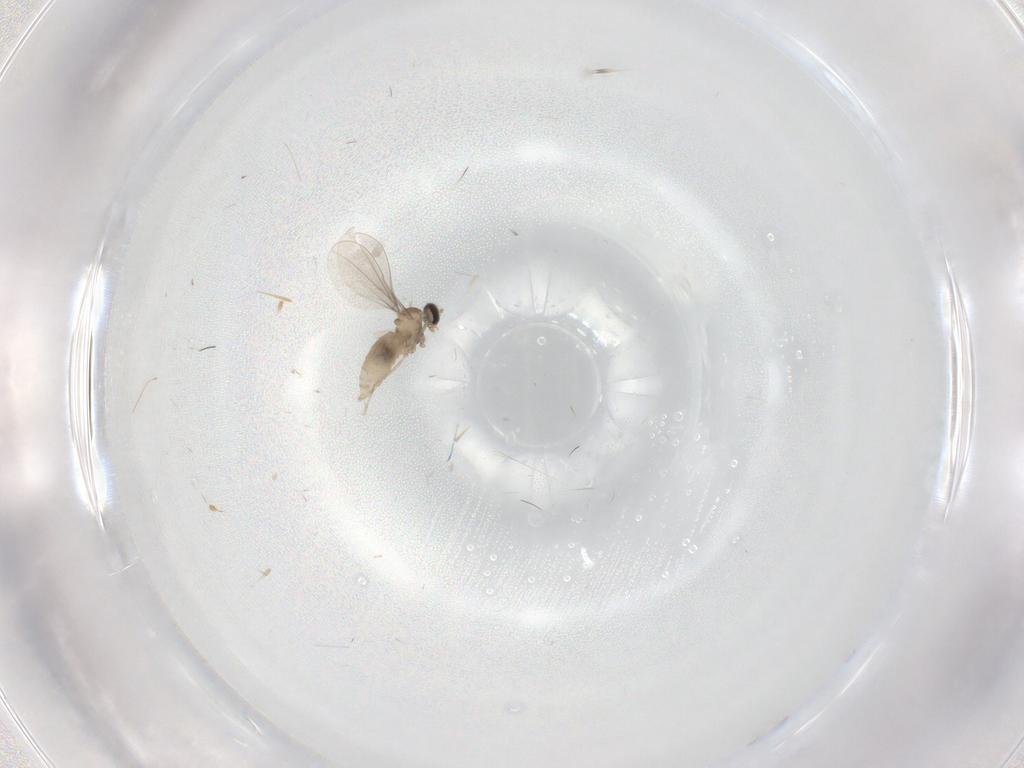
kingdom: Animalia
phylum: Arthropoda
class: Insecta
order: Diptera
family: Cecidomyiidae
